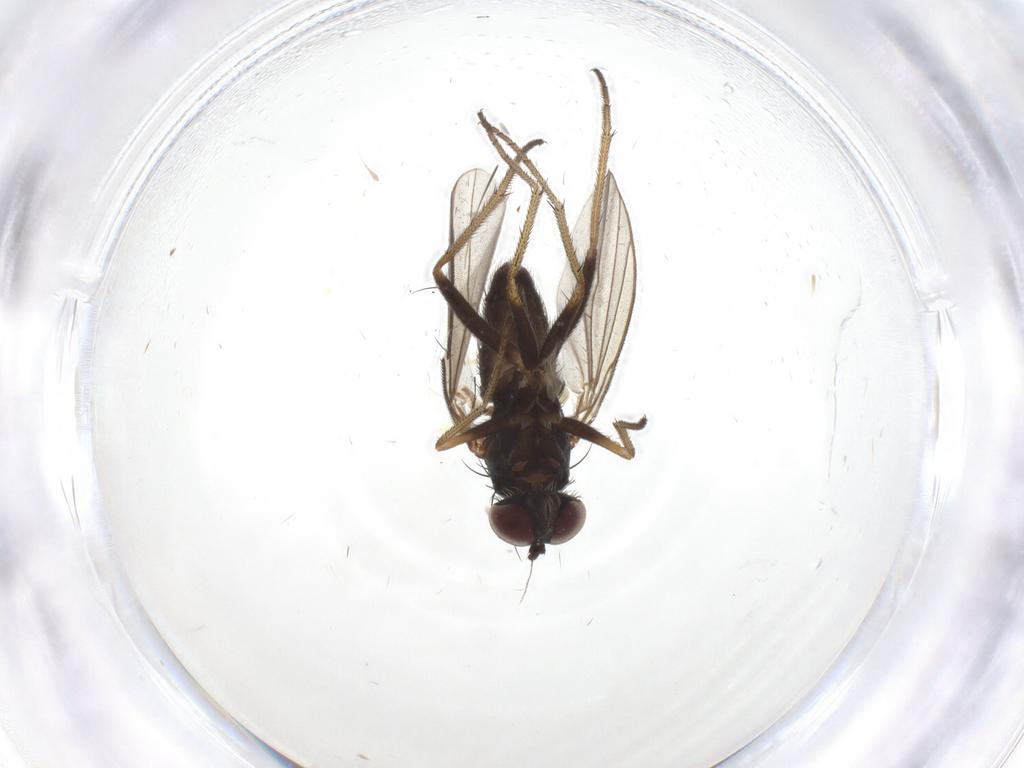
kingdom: Animalia
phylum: Arthropoda
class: Insecta
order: Diptera
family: Dolichopodidae
